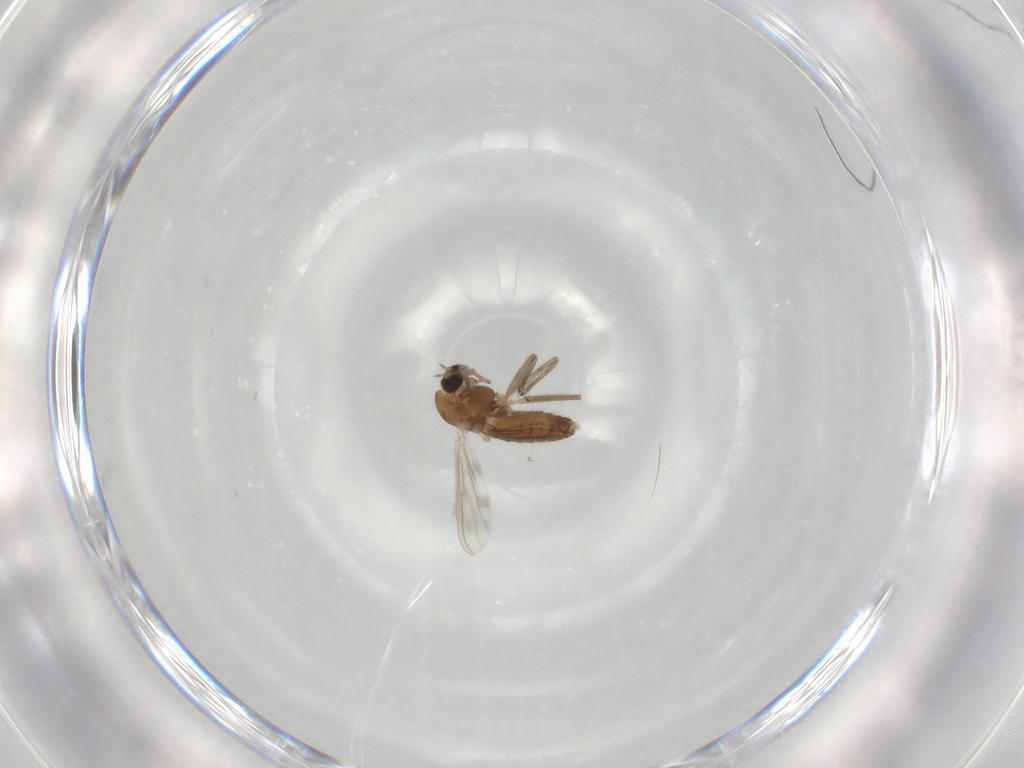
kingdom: Animalia
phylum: Arthropoda
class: Insecta
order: Diptera
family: Chironomidae
